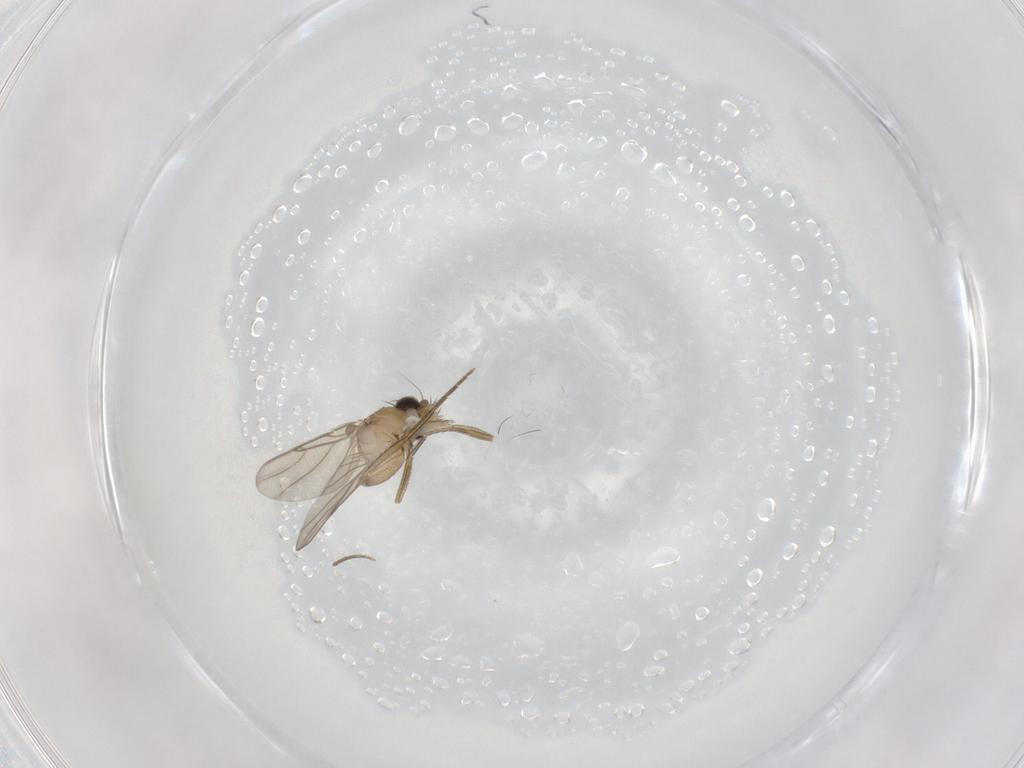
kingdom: Animalia
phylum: Arthropoda
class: Insecta
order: Diptera
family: Phoridae
